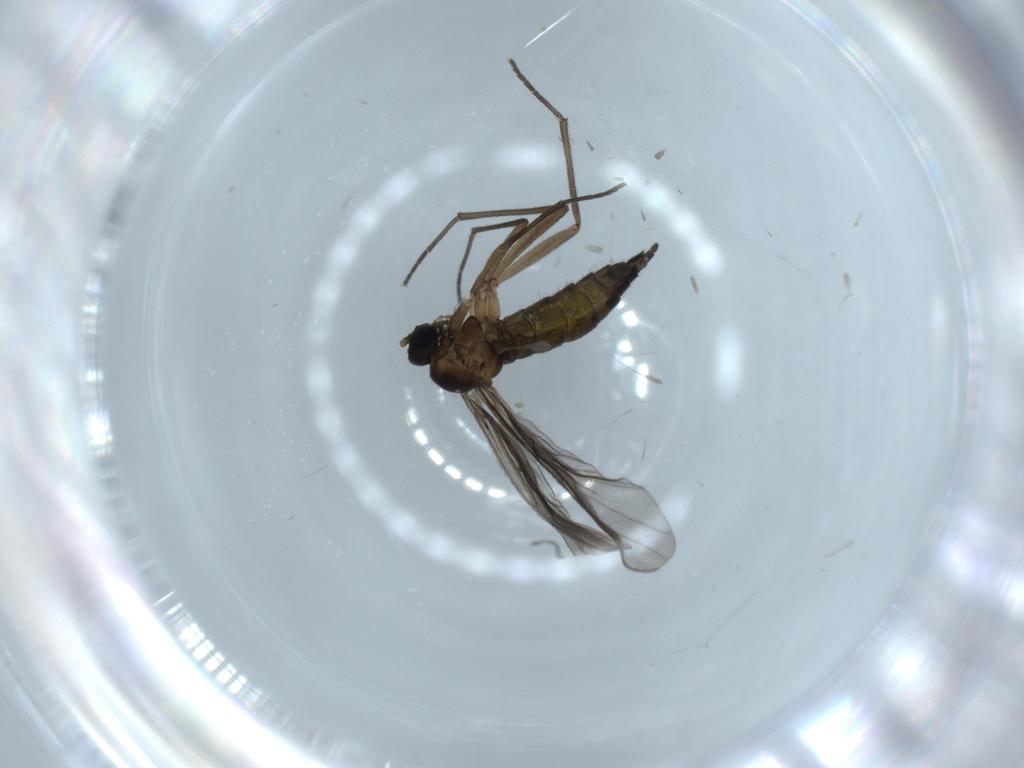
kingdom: Animalia
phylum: Arthropoda
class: Insecta
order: Diptera
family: Sciaridae
